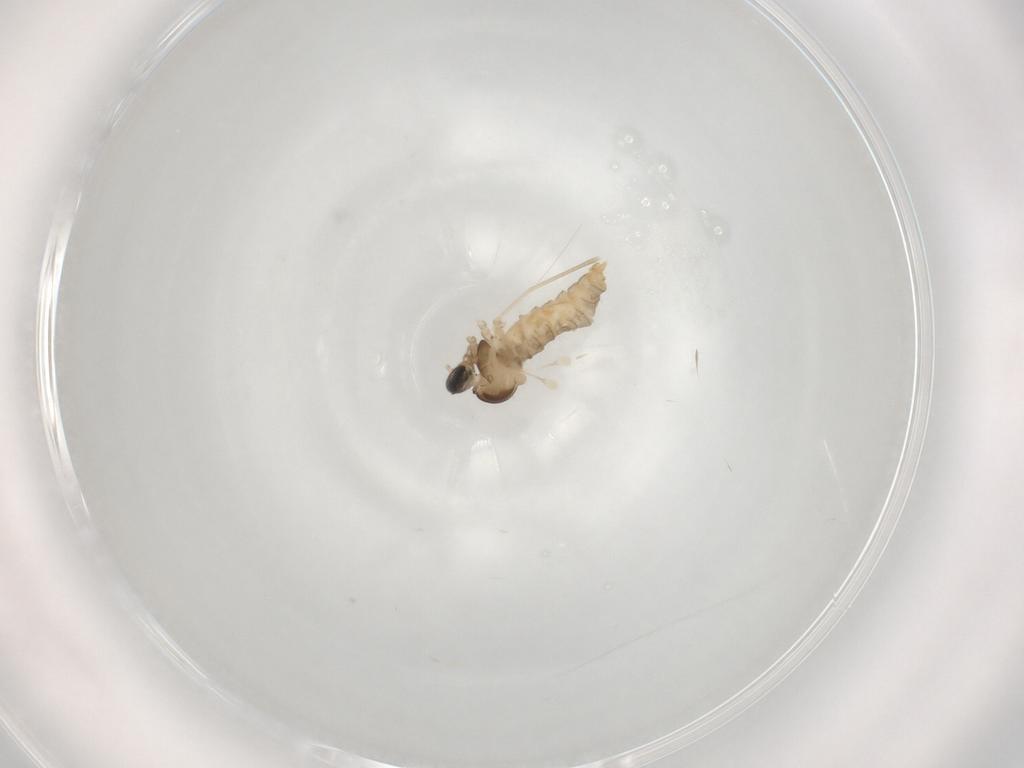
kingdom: Animalia
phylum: Arthropoda
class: Insecta
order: Diptera
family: Cecidomyiidae
